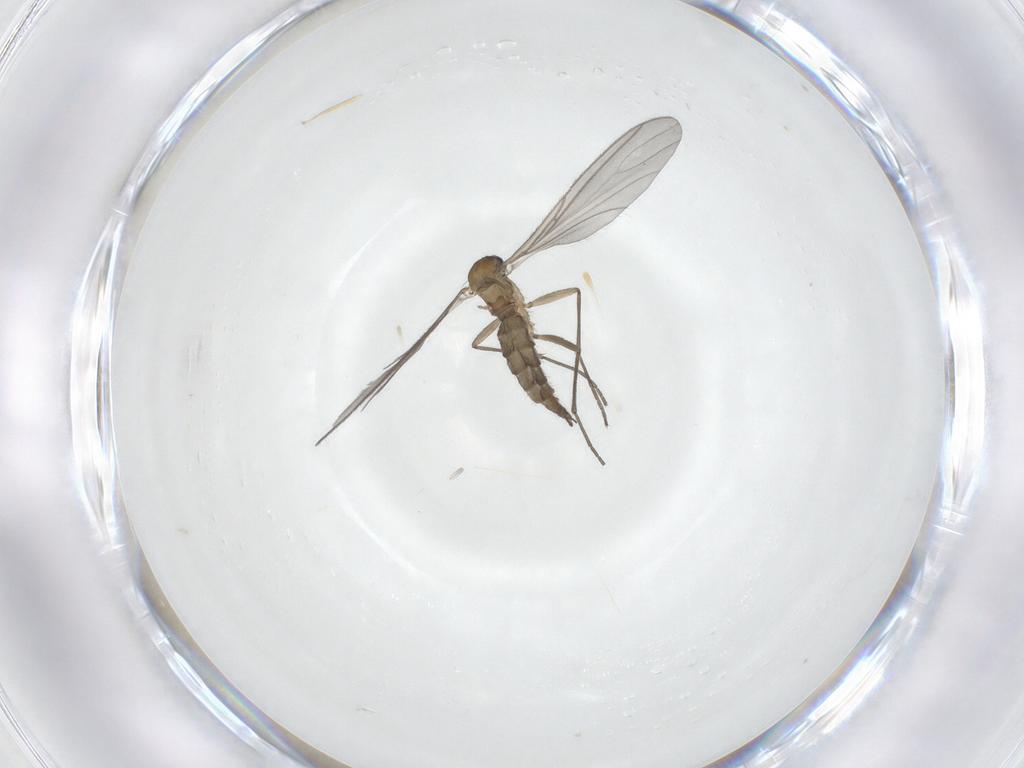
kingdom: Animalia
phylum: Arthropoda
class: Insecta
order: Diptera
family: Sciaridae
